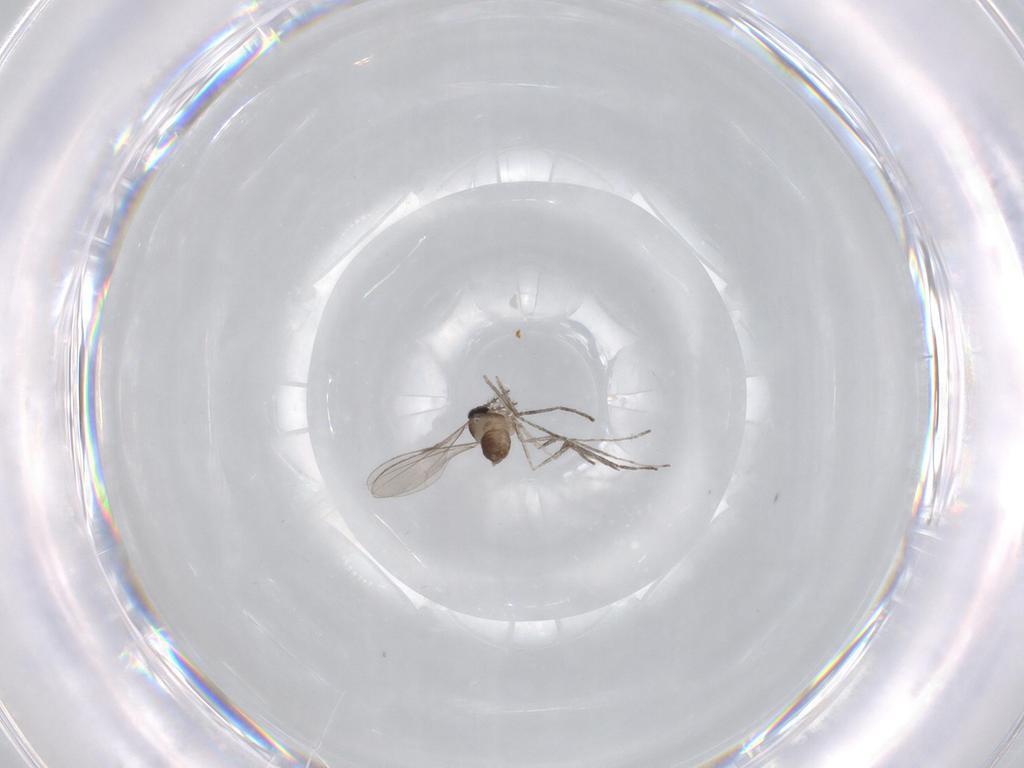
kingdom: Animalia
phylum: Arthropoda
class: Insecta
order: Diptera
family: Cecidomyiidae
